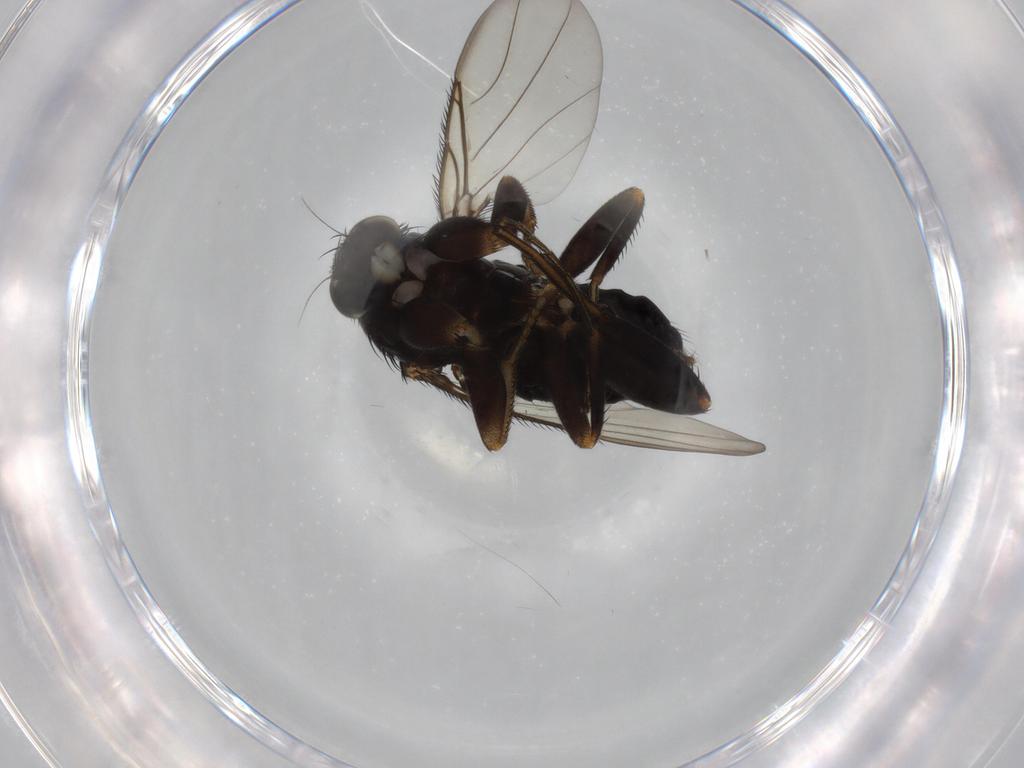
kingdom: Animalia
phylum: Arthropoda
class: Insecta
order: Diptera
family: Phoridae
